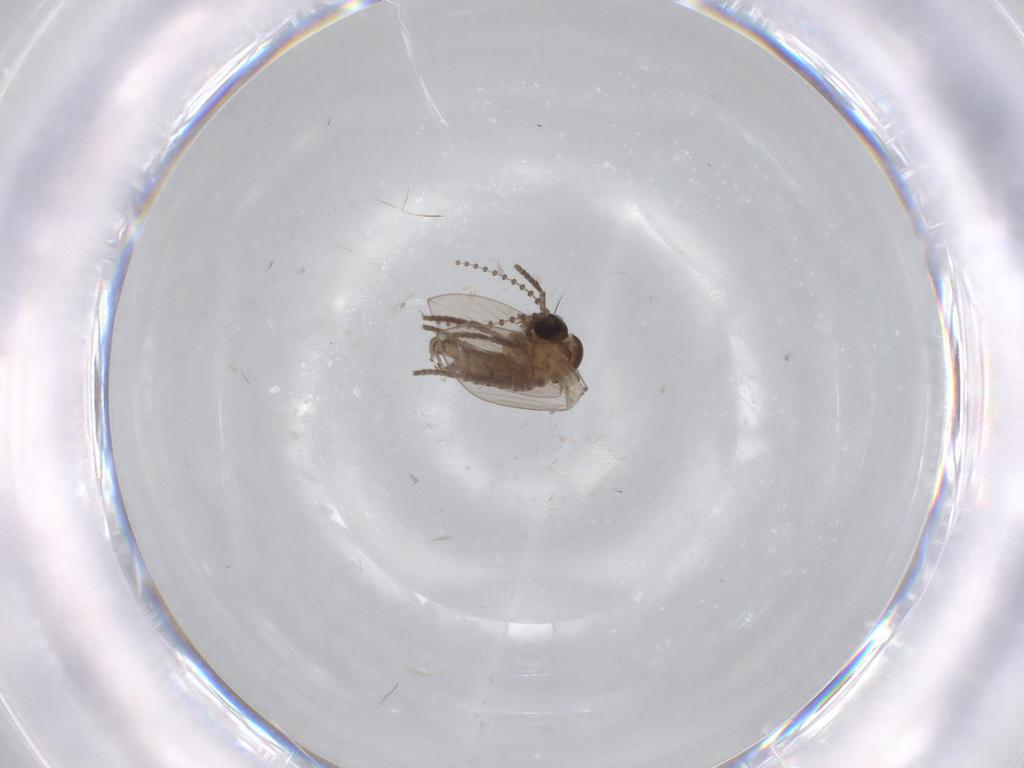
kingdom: Animalia
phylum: Arthropoda
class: Insecta
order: Diptera
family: Psychodidae
